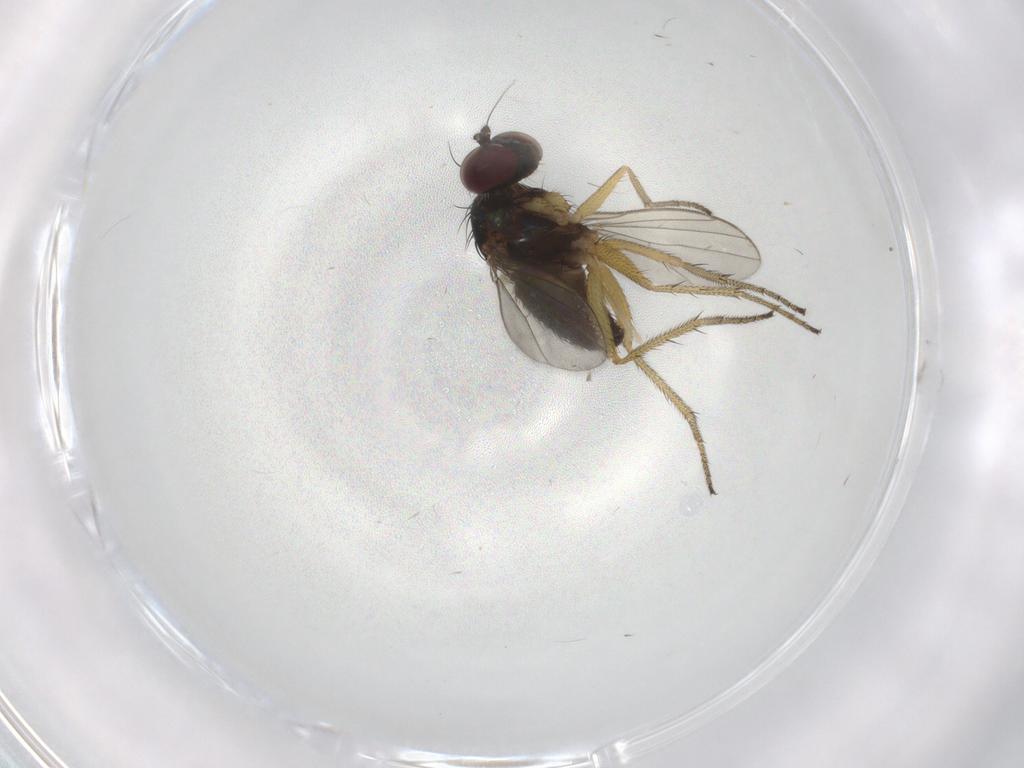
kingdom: Animalia
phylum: Arthropoda
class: Insecta
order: Diptera
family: Chironomidae
